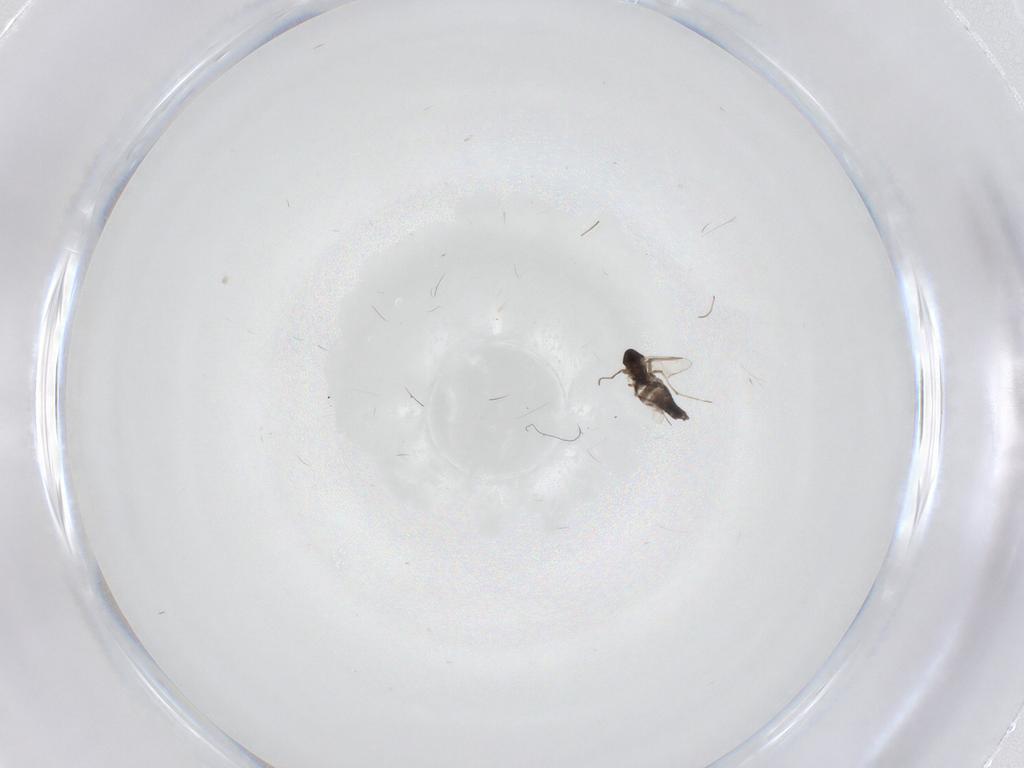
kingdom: Animalia
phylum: Arthropoda
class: Insecta
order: Diptera
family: Chironomidae
